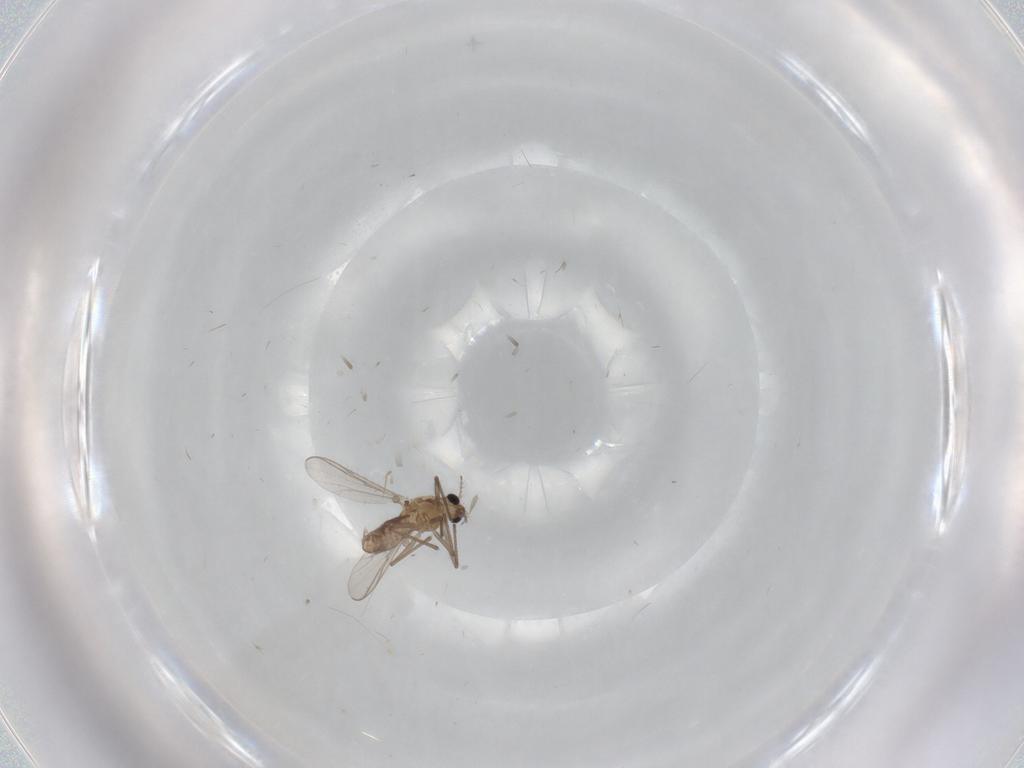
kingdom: Animalia
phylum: Arthropoda
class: Insecta
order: Diptera
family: Chironomidae
